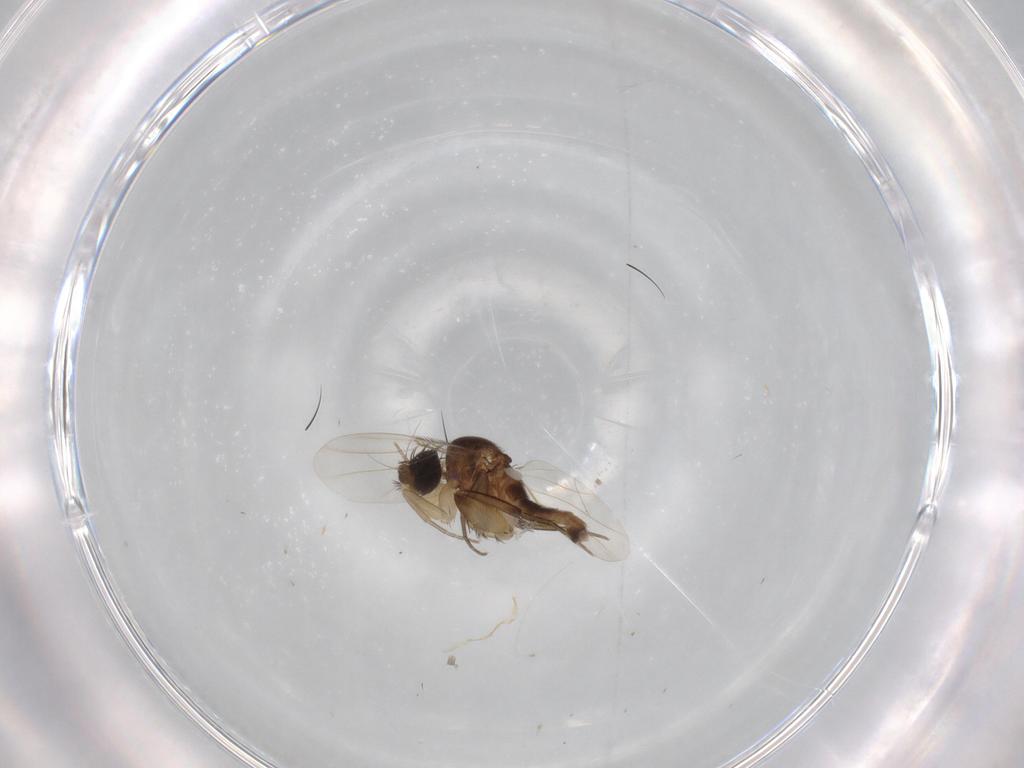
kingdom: Animalia
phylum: Arthropoda
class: Insecta
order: Diptera
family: Phoridae
